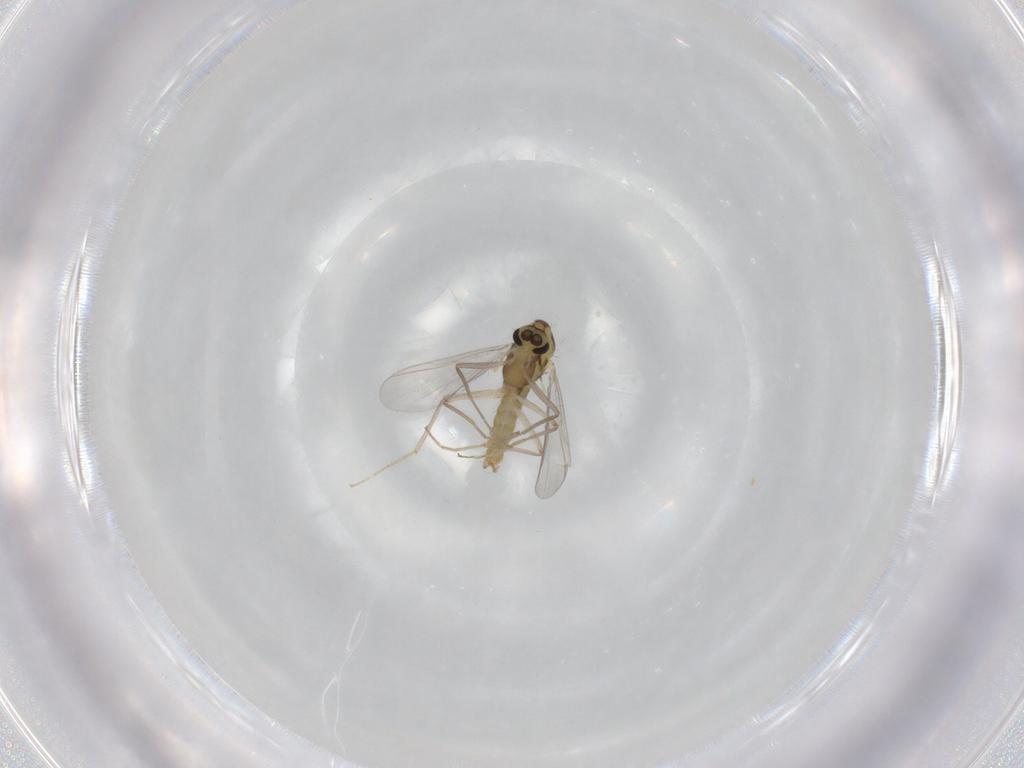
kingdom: Animalia
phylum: Arthropoda
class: Insecta
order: Diptera
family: Chironomidae
